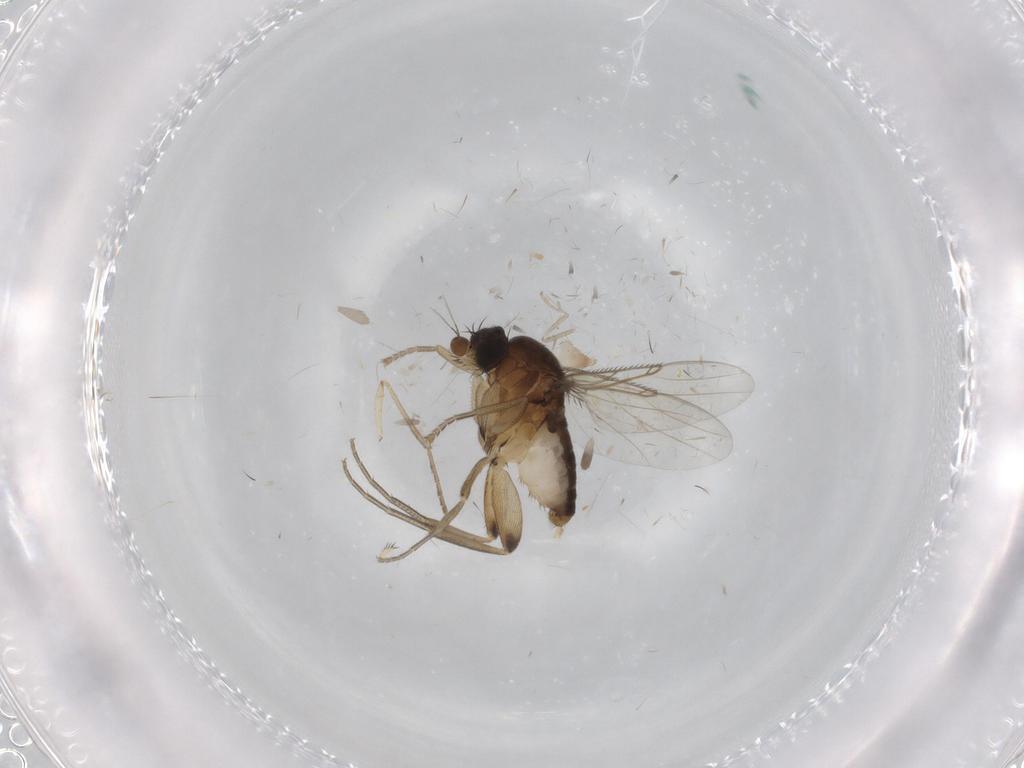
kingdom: Animalia
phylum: Arthropoda
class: Insecta
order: Diptera
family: Phoridae
